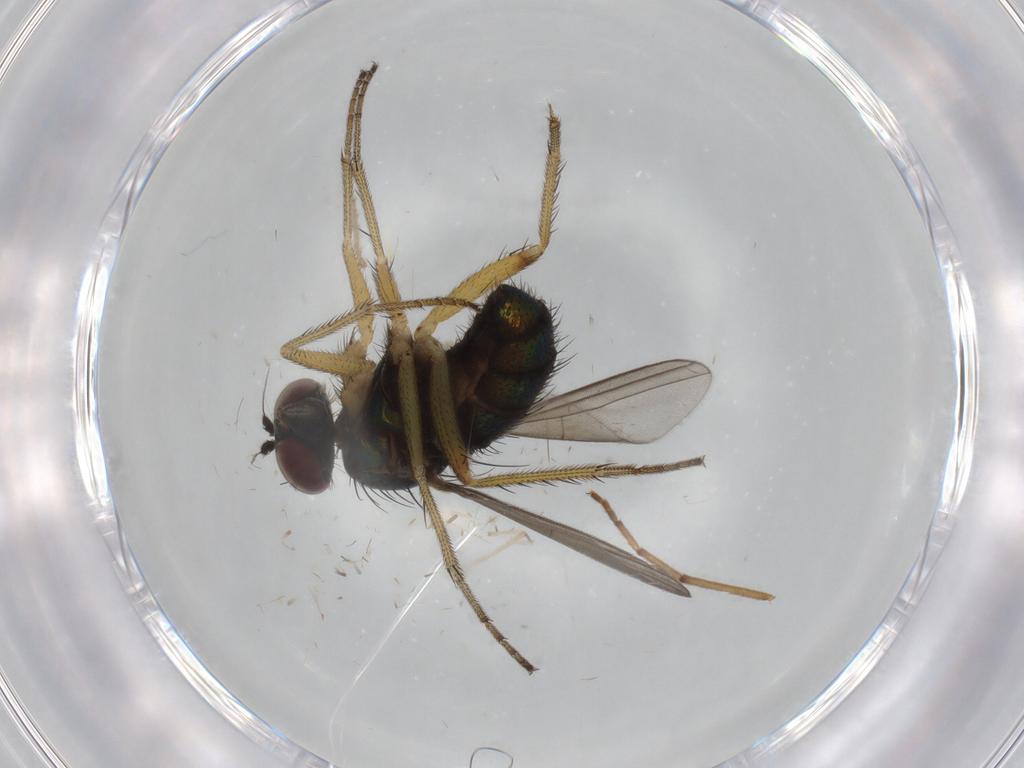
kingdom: Animalia
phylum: Arthropoda
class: Insecta
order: Diptera
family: Dolichopodidae
